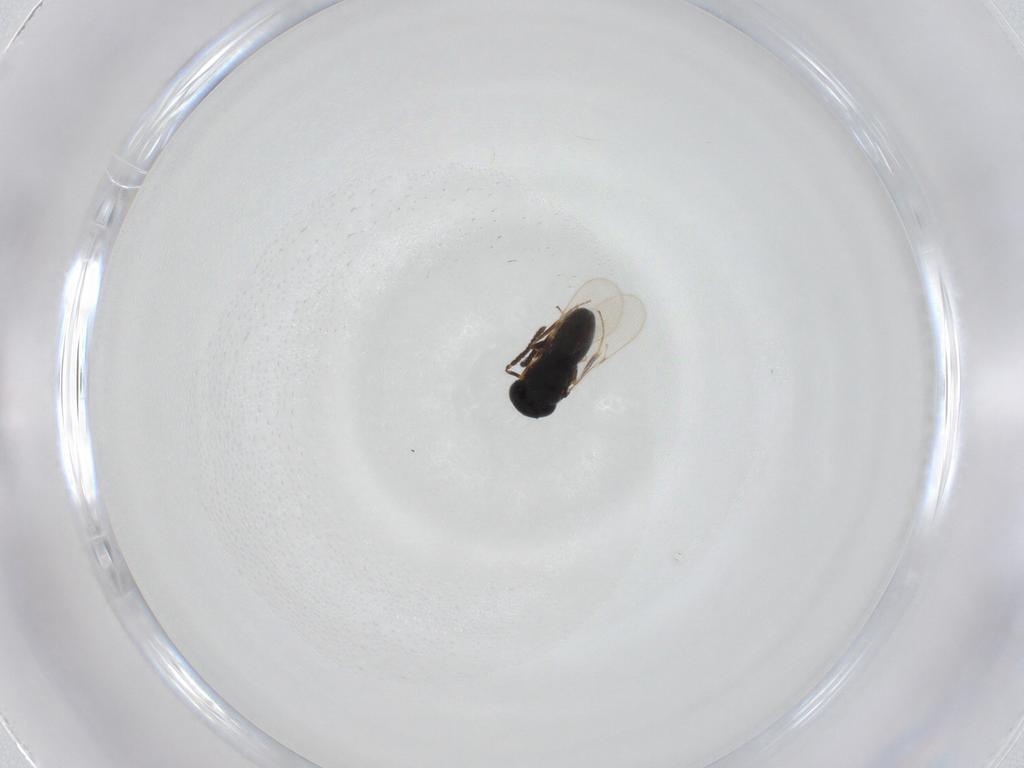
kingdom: Animalia
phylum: Arthropoda
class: Insecta
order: Hymenoptera
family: Scelionidae
